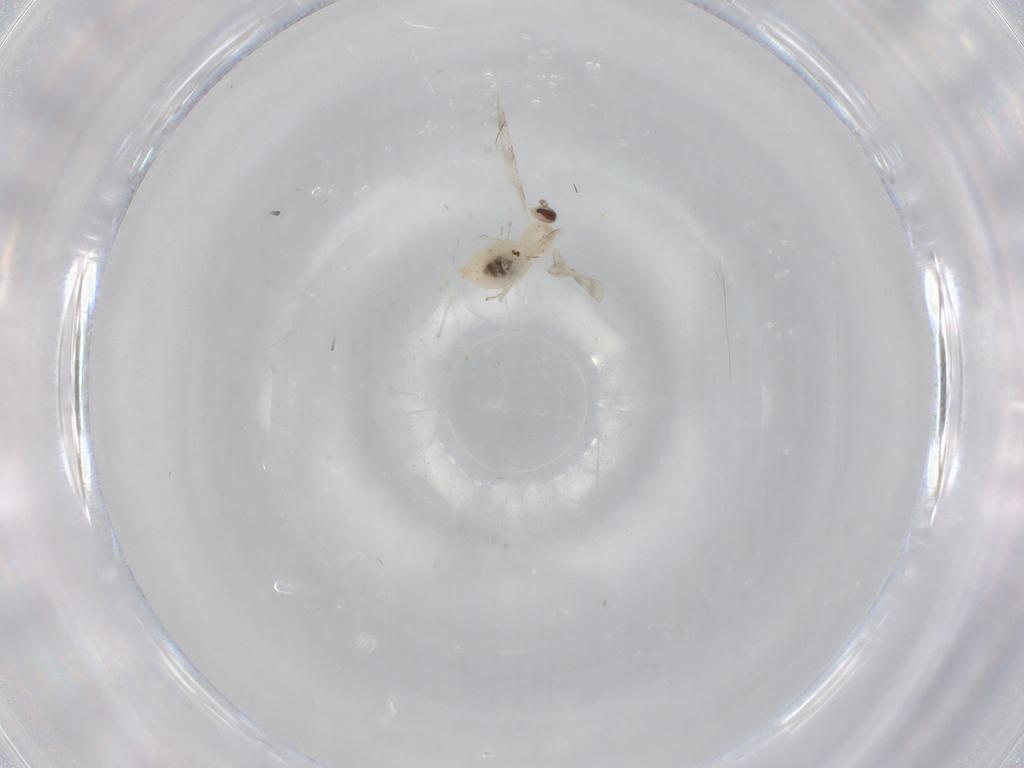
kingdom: Animalia
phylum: Arthropoda
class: Insecta
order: Diptera
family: Cecidomyiidae
